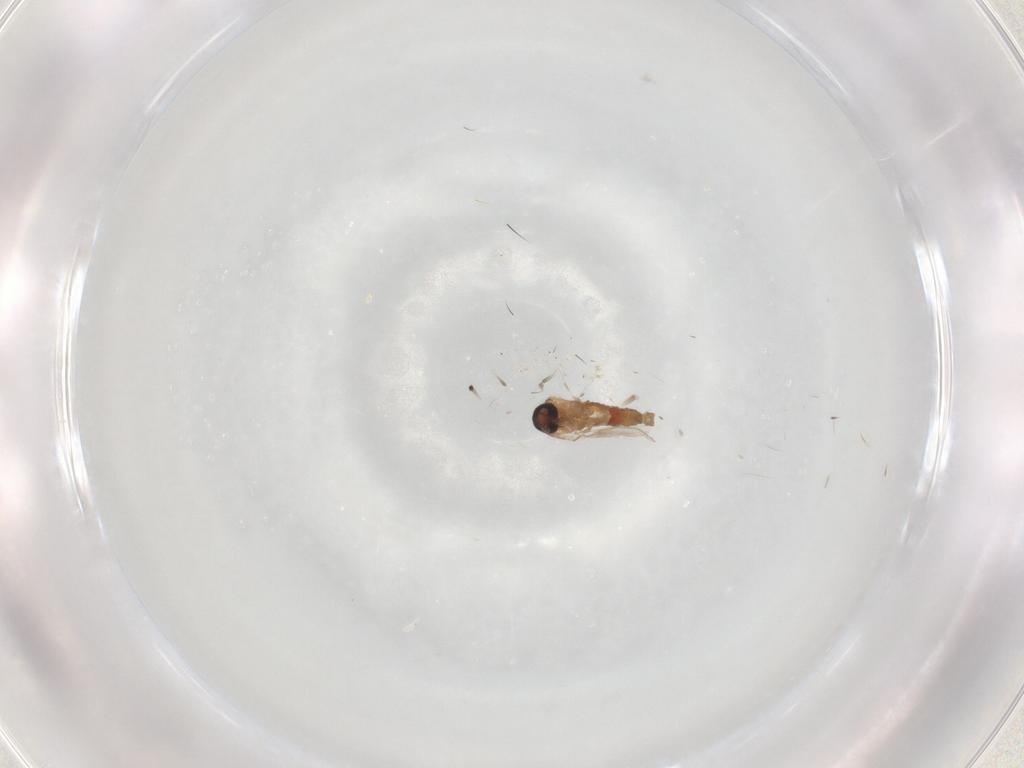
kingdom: Animalia
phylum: Arthropoda
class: Insecta
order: Diptera
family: Psychodidae
